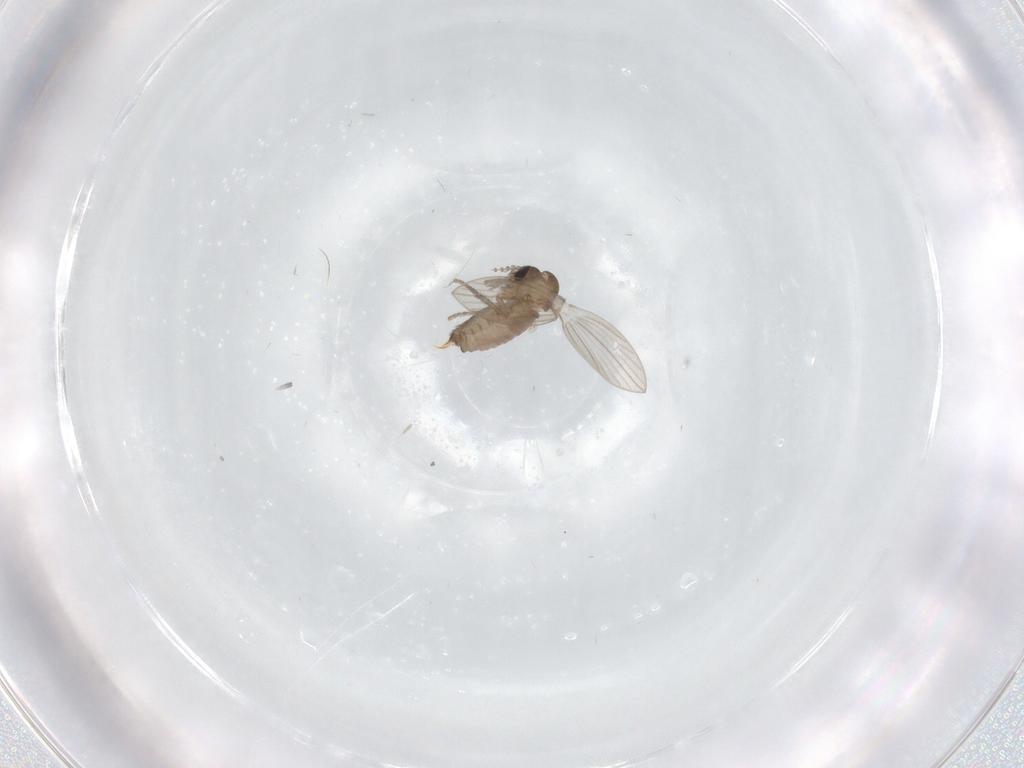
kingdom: Animalia
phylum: Arthropoda
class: Insecta
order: Diptera
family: Psychodidae
